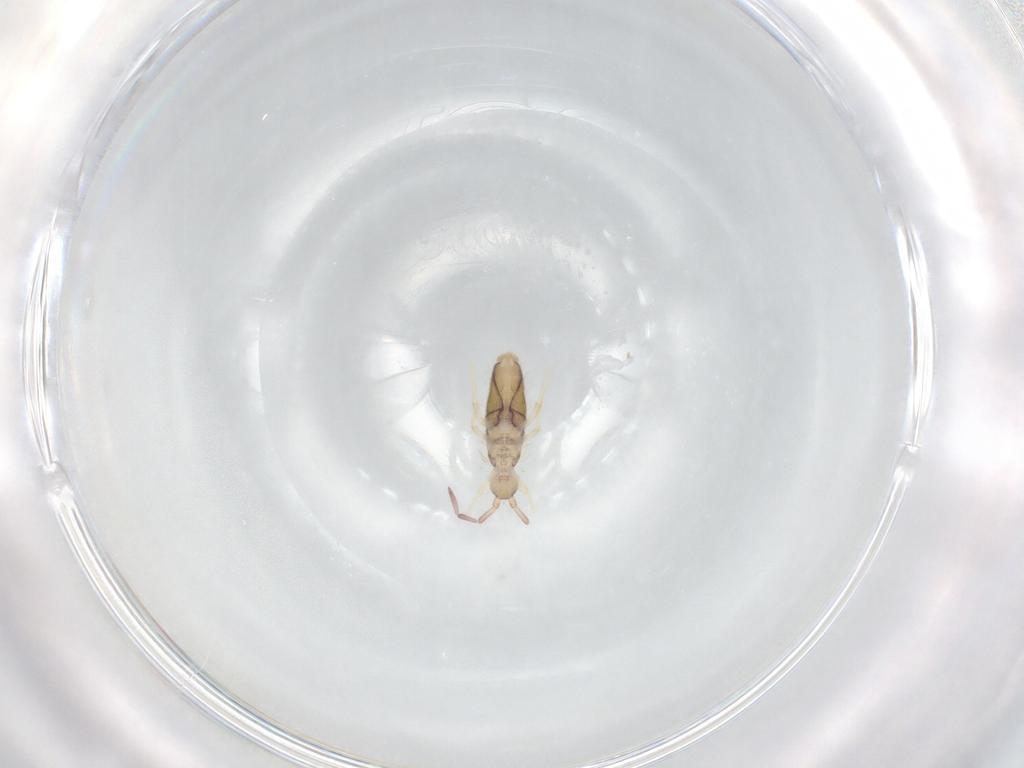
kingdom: Animalia
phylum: Arthropoda
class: Collembola
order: Entomobryomorpha
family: Entomobryidae
